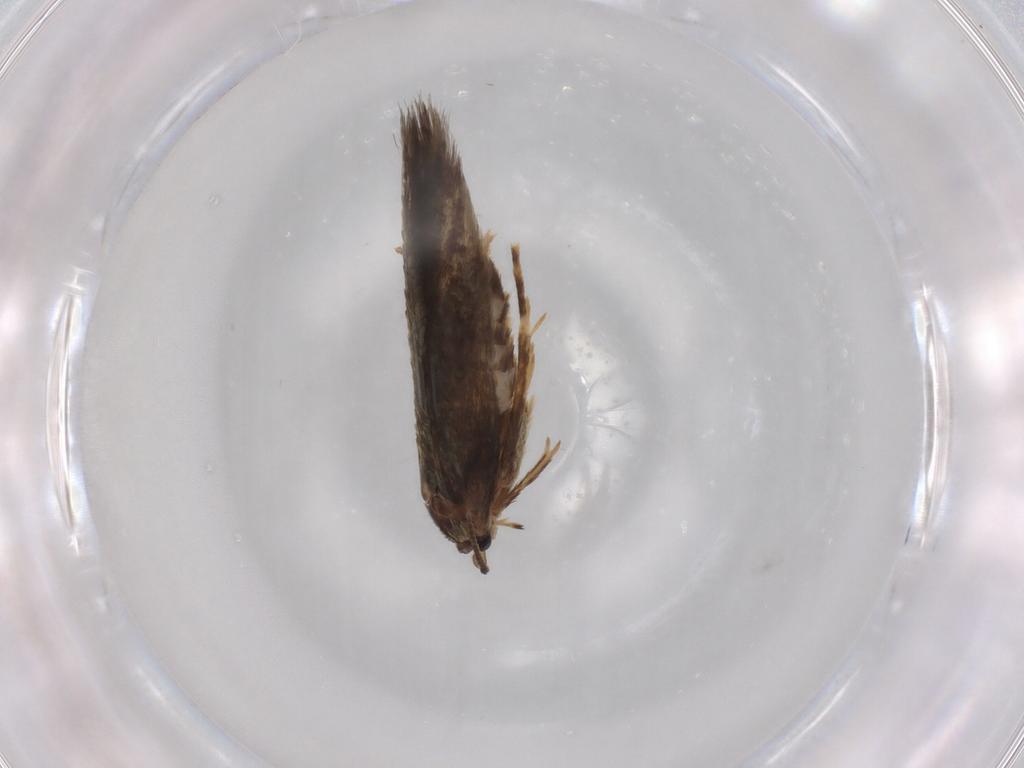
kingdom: Animalia
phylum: Arthropoda
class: Insecta
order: Lepidoptera
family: Nepticulidae
